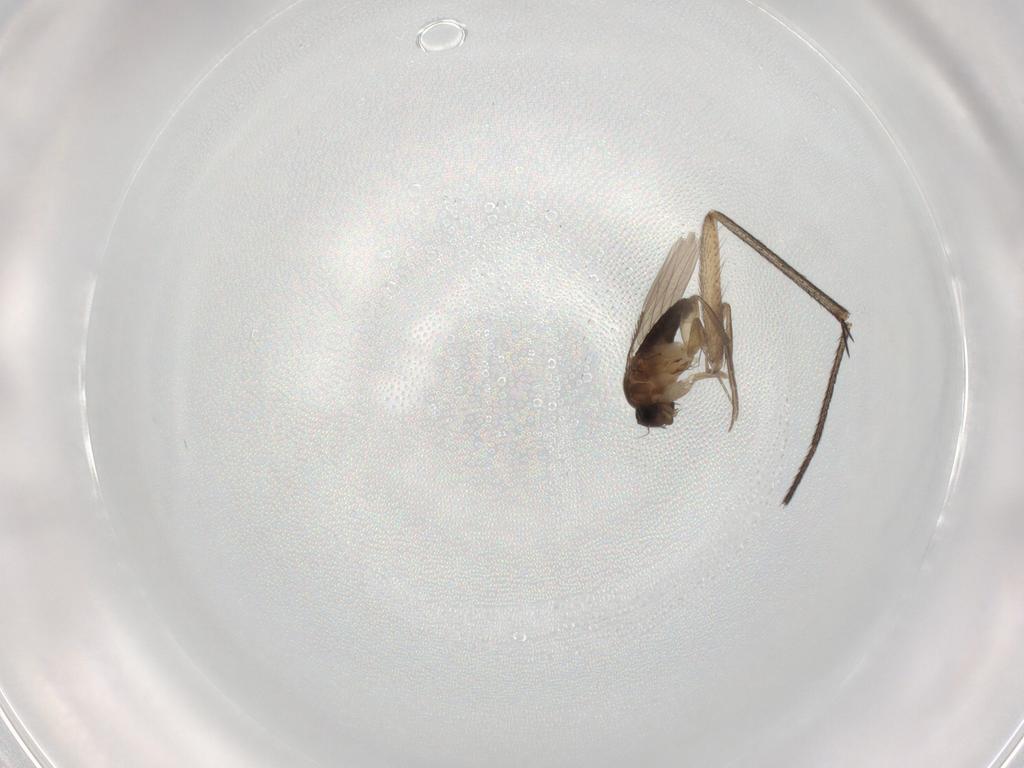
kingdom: Animalia
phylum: Arthropoda
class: Insecta
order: Diptera
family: Phoridae
